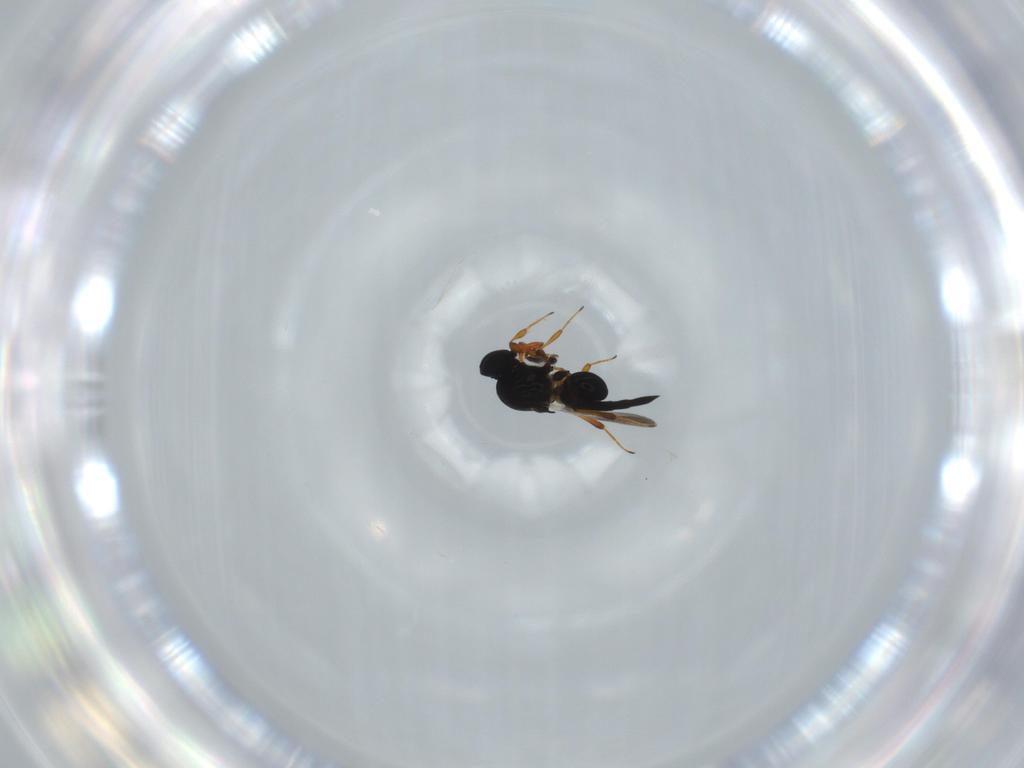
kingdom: Animalia
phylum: Arthropoda
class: Insecta
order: Hymenoptera
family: Platygastridae
